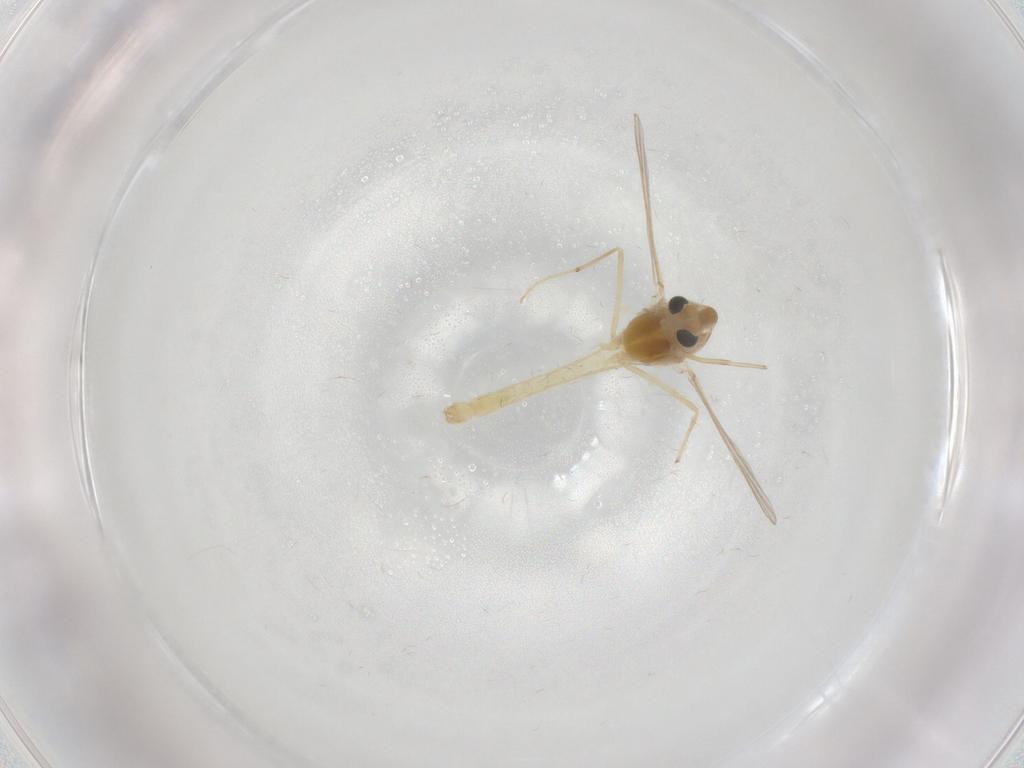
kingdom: Animalia
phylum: Arthropoda
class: Insecta
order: Diptera
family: Chironomidae
